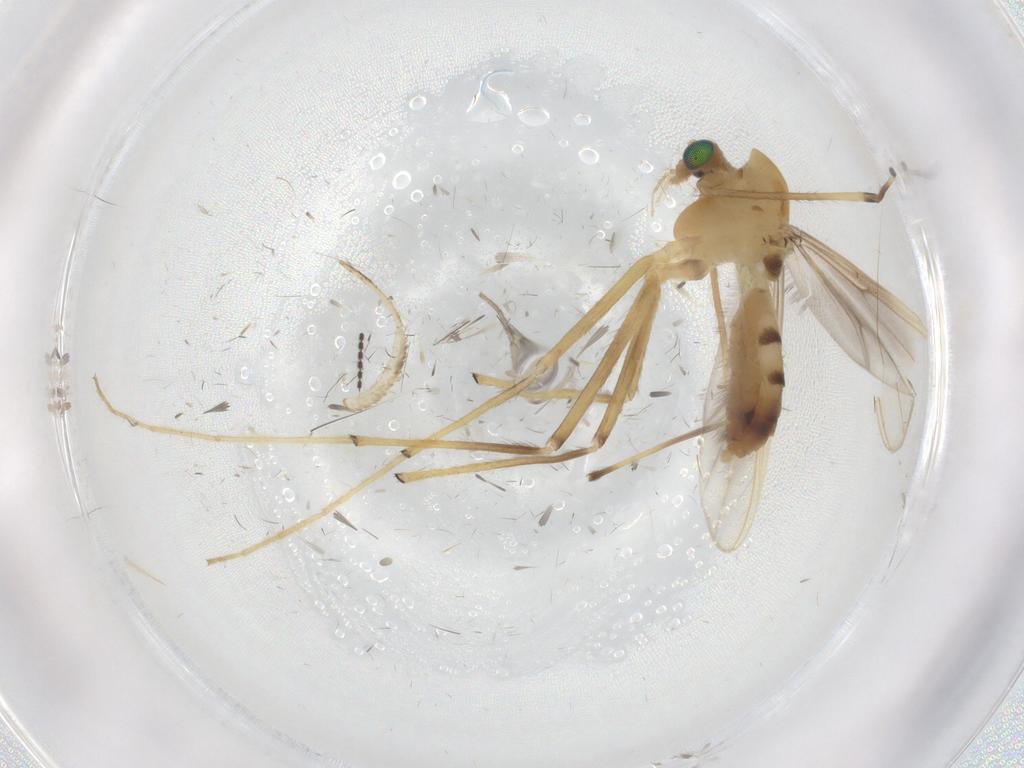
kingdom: Animalia
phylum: Arthropoda
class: Insecta
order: Diptera
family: Chironomidae
